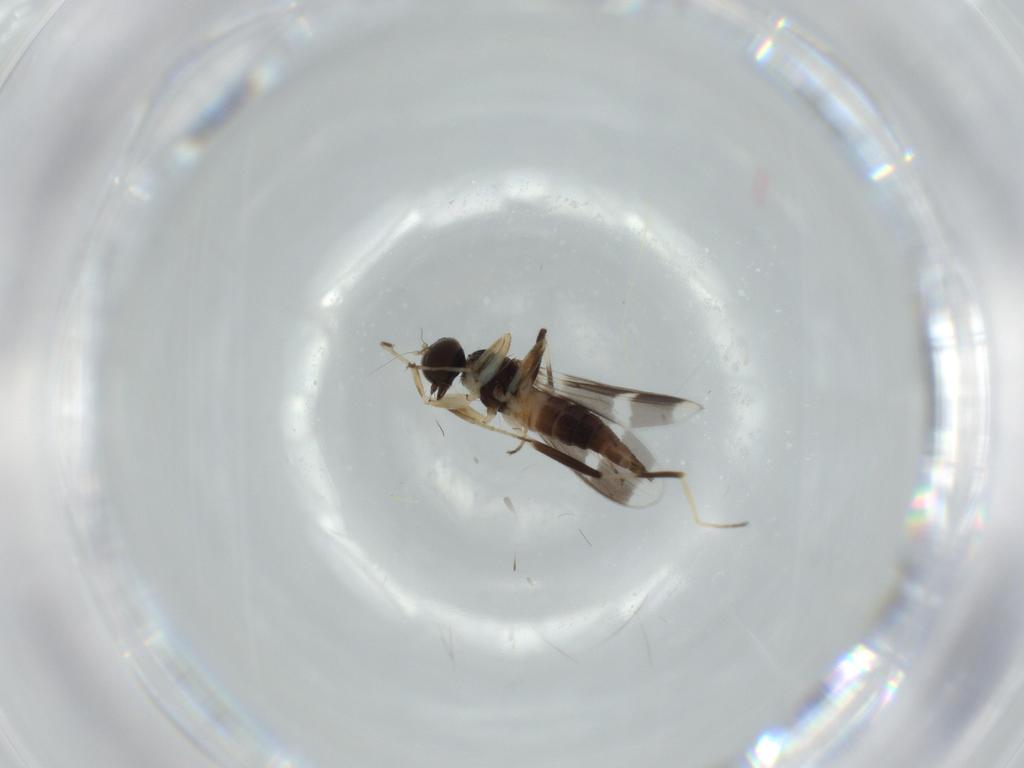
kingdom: Animalia
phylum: Arthropoda
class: Insecta
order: Diptera
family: Hybotidae
